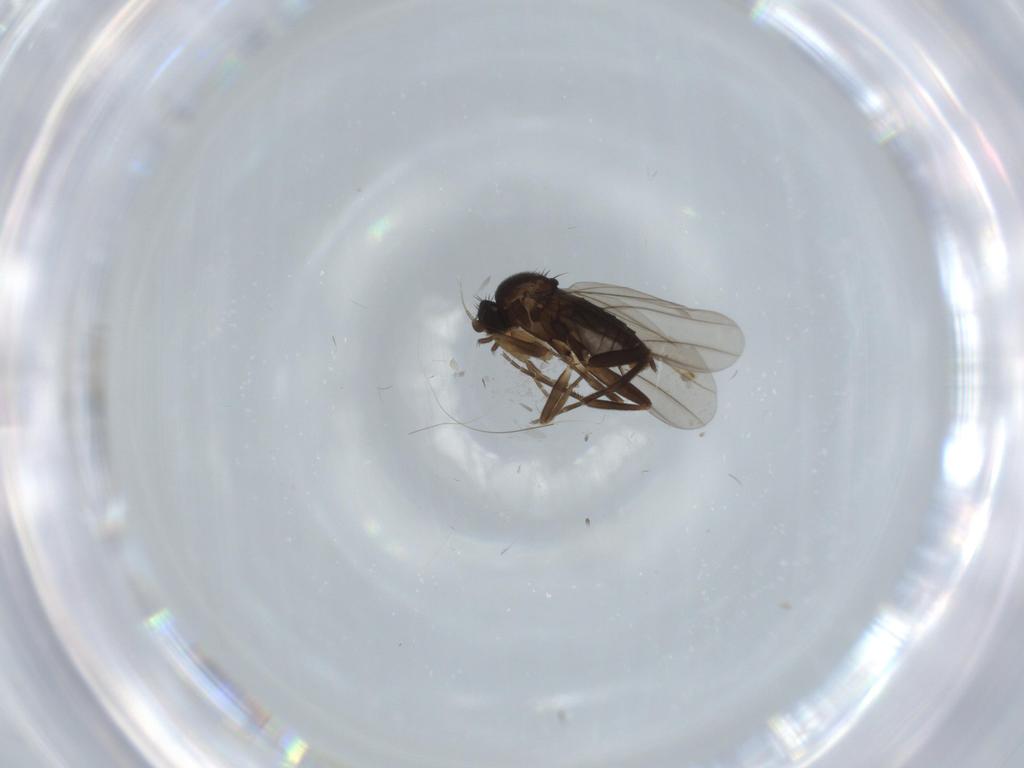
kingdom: Animalia
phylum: Arthropoda
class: Insecta
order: Diptera
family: Phoridae
